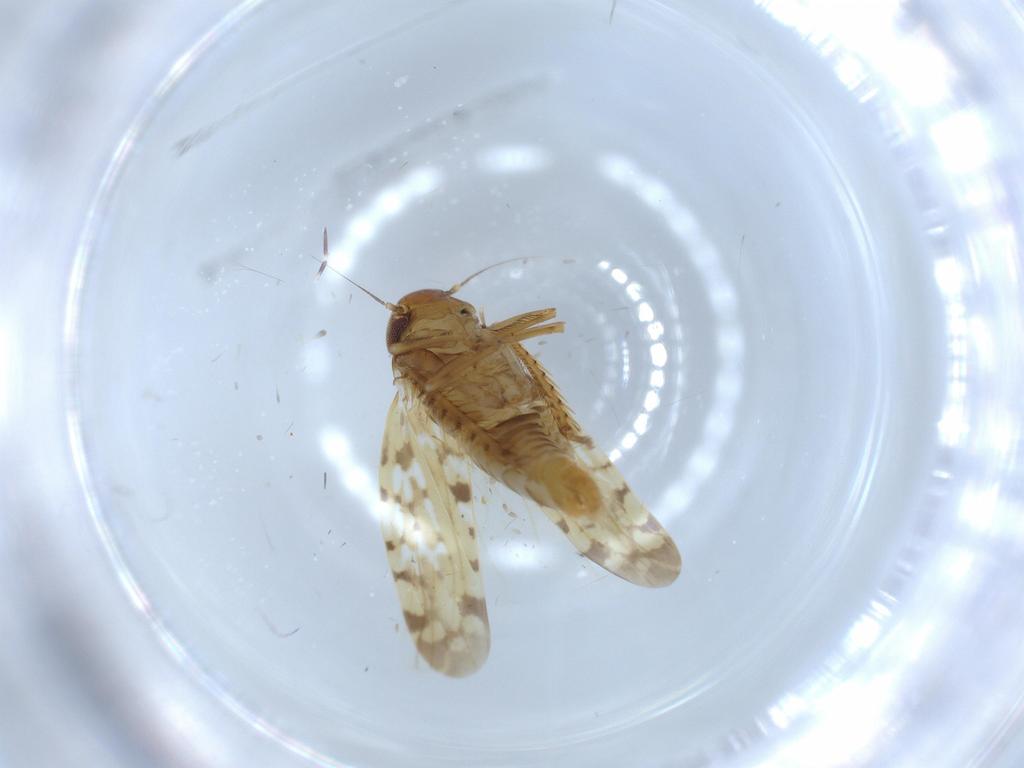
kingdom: Animalia
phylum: Arthropoda
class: Insecta
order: Hemiptera
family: Cicadellidae
